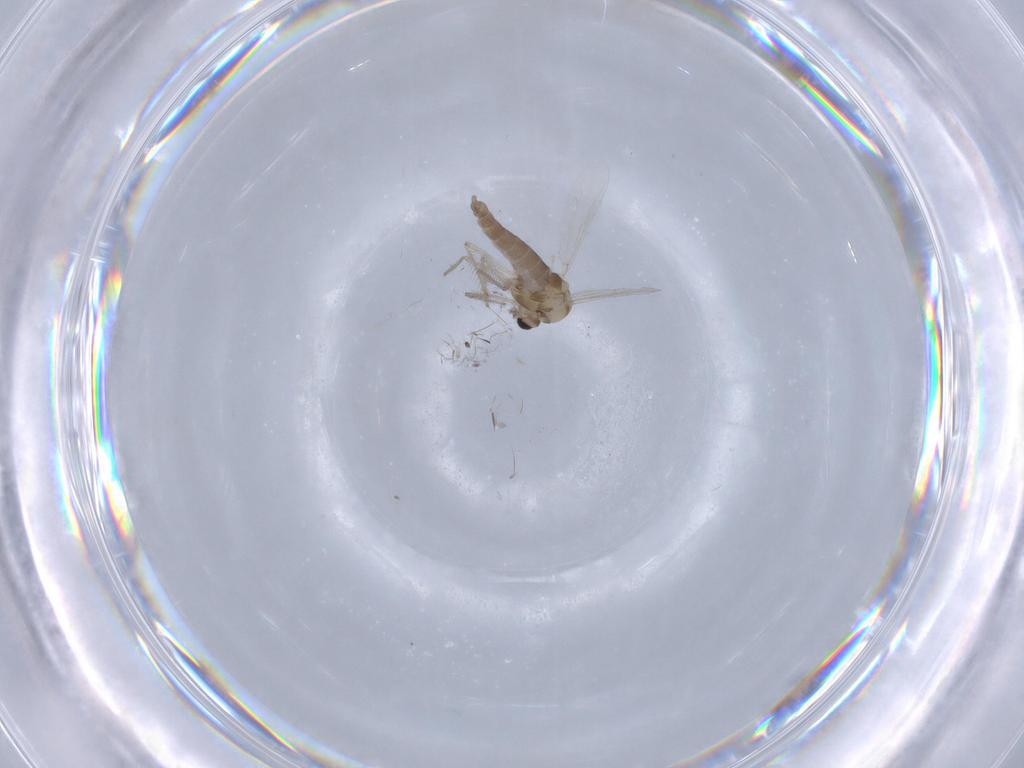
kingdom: Animalia
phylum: Arthropoda
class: Insecta
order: Diptera
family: Chironomidae
